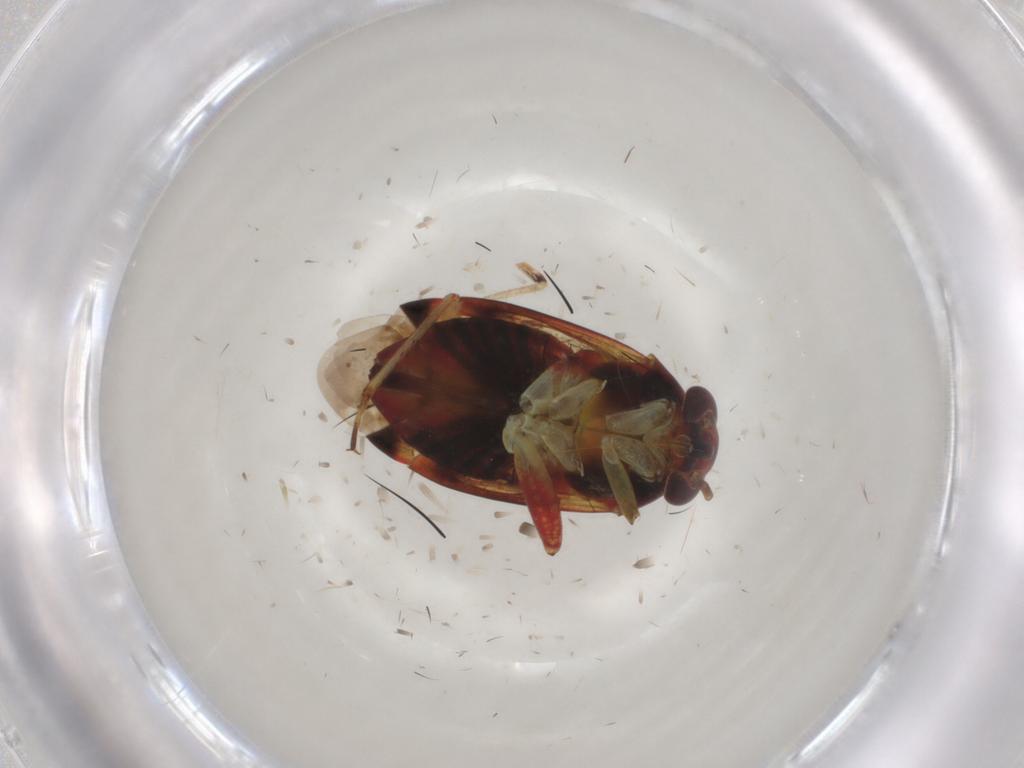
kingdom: Animalia
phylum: Arthropoda
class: Insecta
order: Hemiptera
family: Miridae
